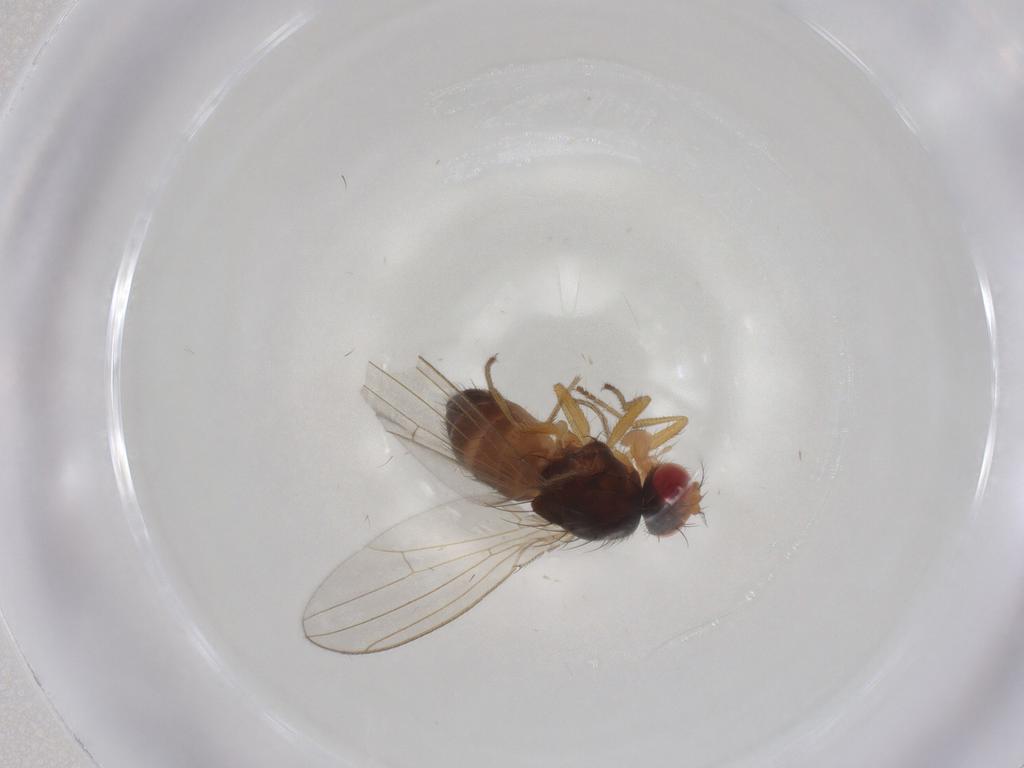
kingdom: Animalia
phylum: Arthropoda
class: Insecta
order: Diptera
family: Drosophilidae
